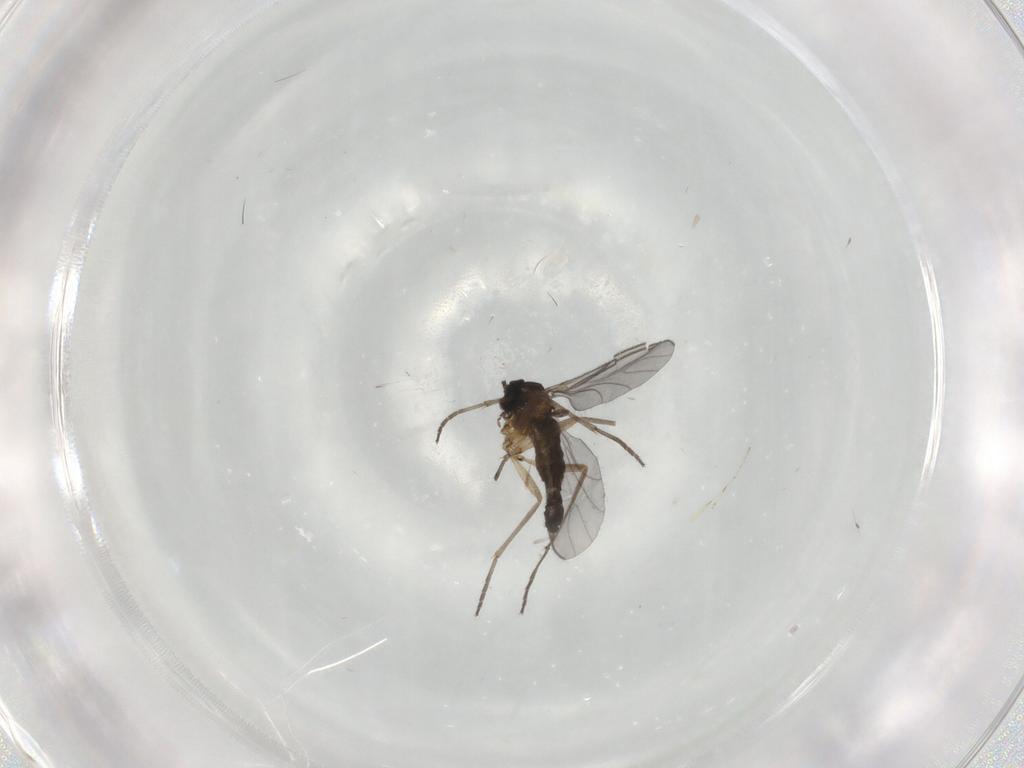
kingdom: Animalia
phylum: Arthropoda
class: Insecta
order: Diptera
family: Sciaridae
